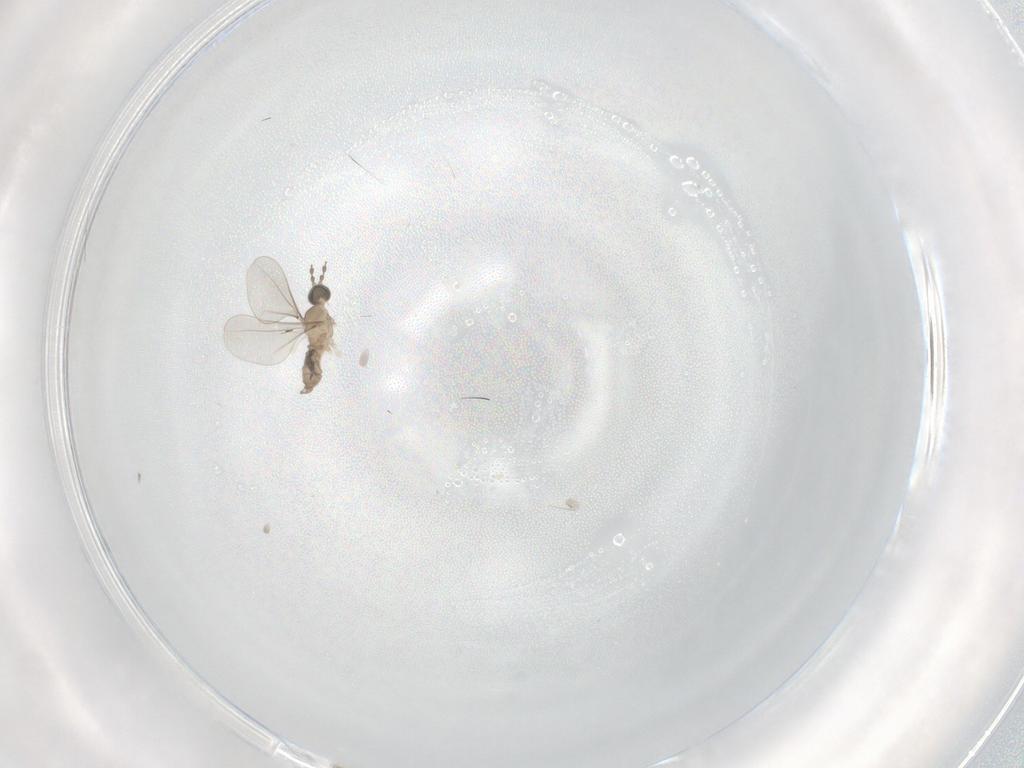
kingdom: Animalia
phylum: Arthropoda
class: Insecta
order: Diptera
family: Cecidomyiidae
